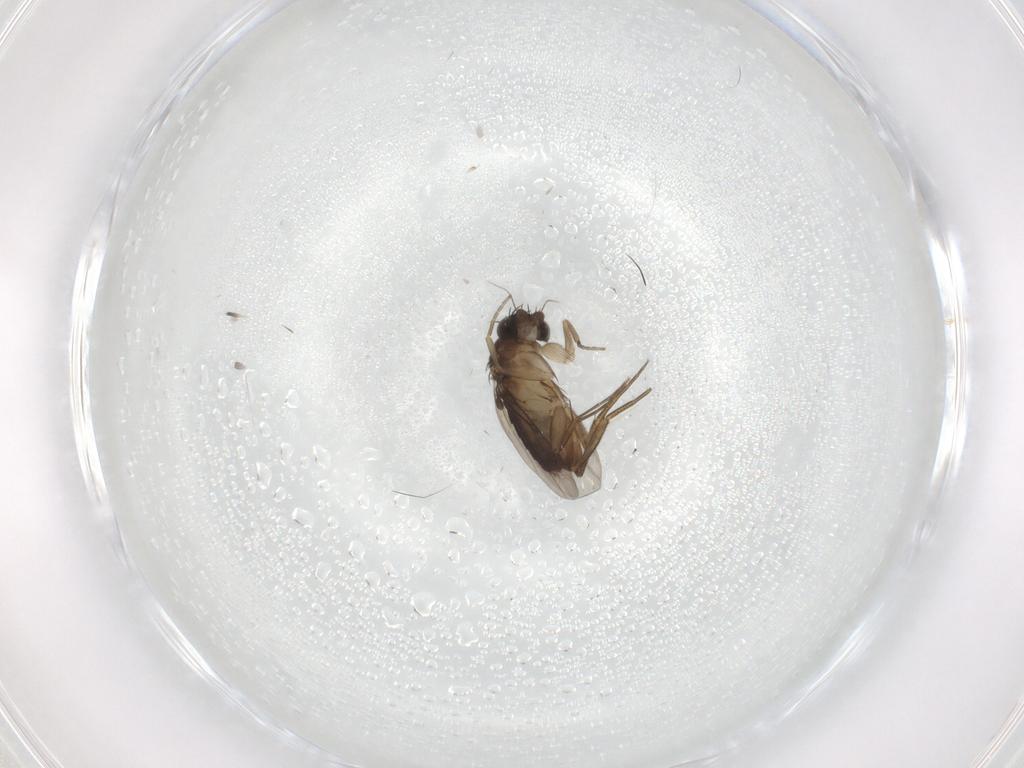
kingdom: Animalia
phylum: Arthropoda
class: Insecta
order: Diptera
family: Phoridae
